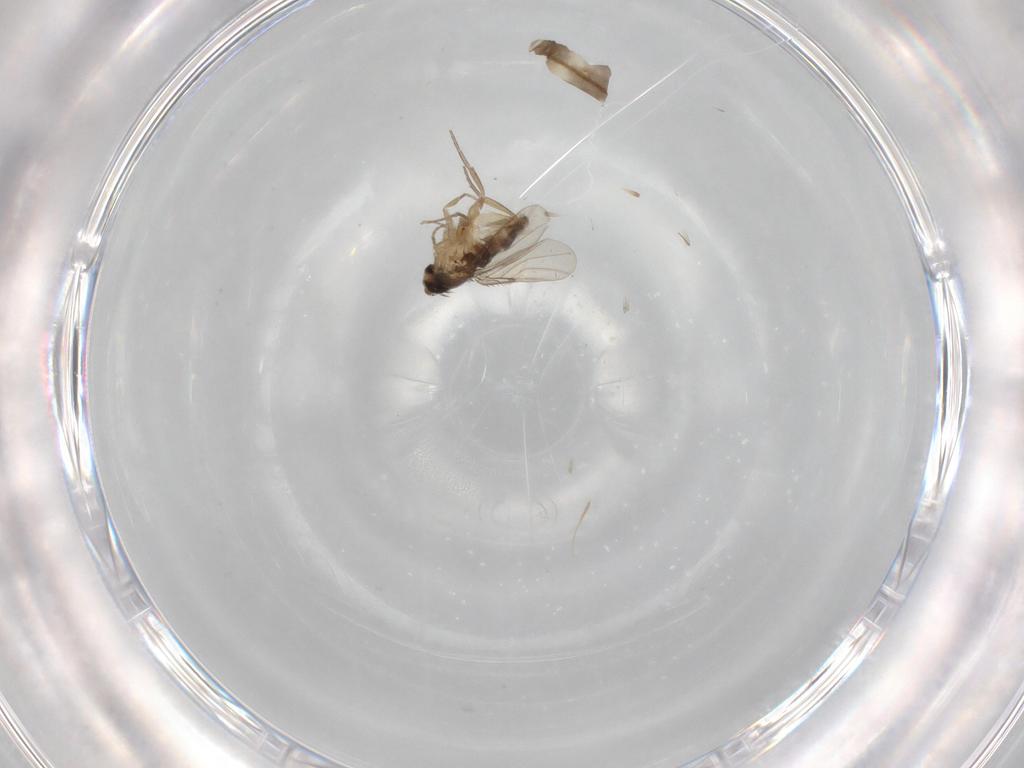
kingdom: Animalia
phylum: Arthropoda
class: Insecta
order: Diptera
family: Phoridae
